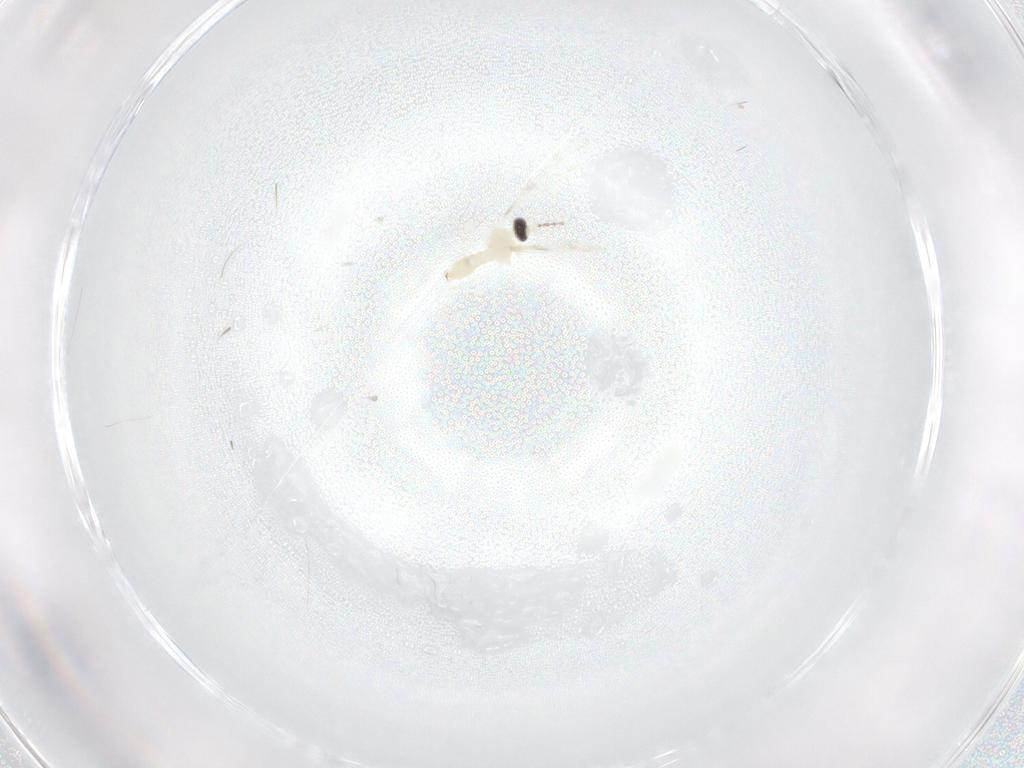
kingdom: Animalia
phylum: Arthropoda
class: Insecta
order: Diptera
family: Cecidomyiidae
